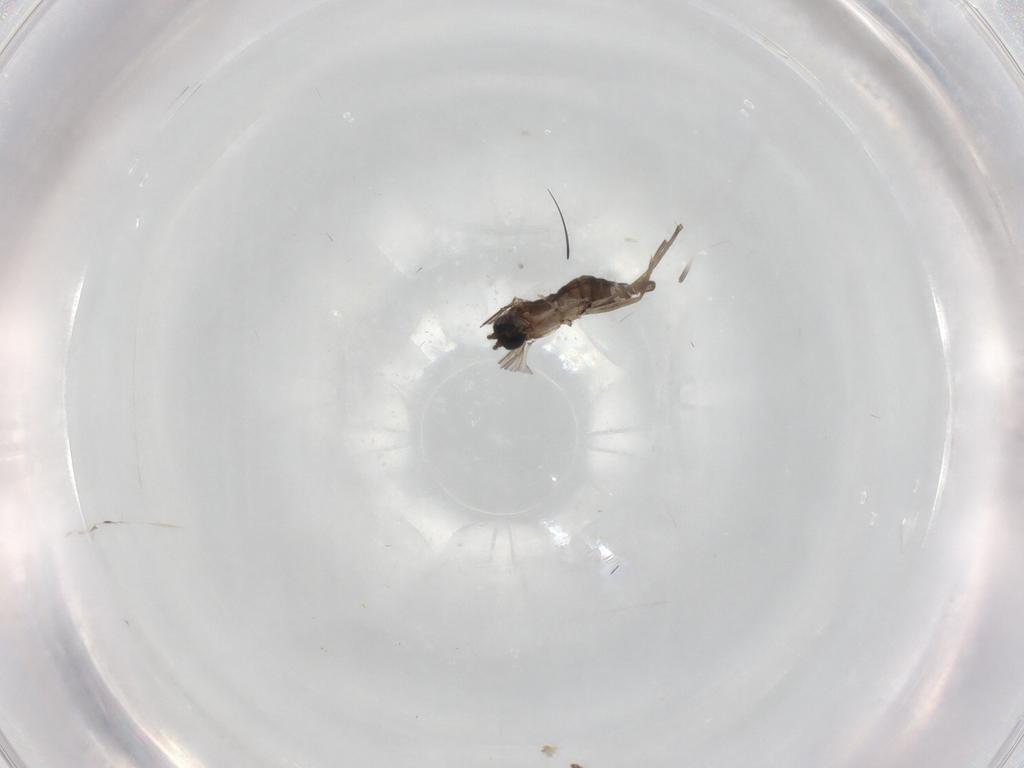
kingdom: Animalia
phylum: Arthropoda
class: Insecta
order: Diptera
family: Sciaridae
